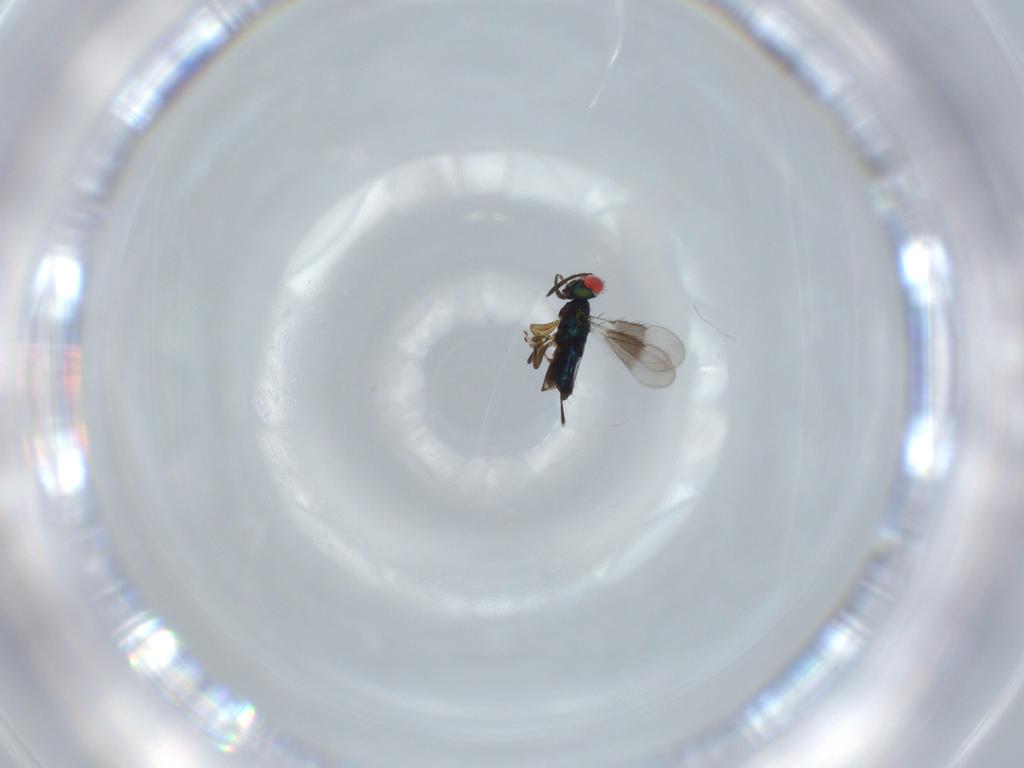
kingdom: Animalia
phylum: Arthropoda
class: Insecta
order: Hymenoptera
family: Azotidae
